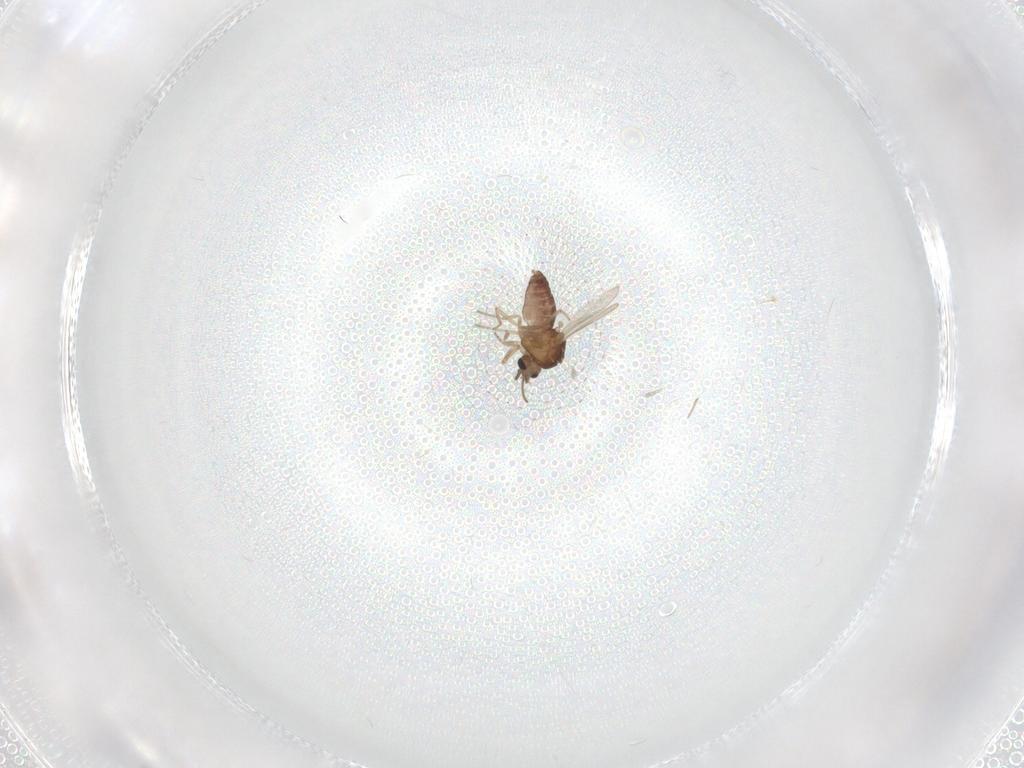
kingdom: Animalia
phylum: Arthropoda
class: Insecta
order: Diptera
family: Ceratopogonidae
